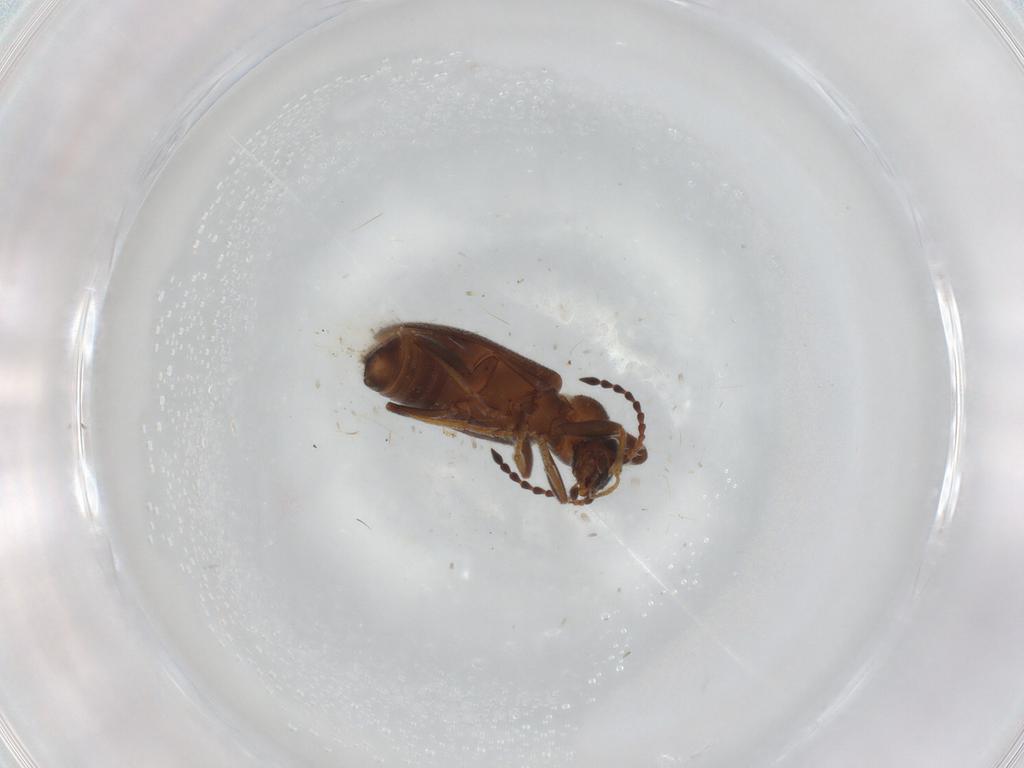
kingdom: Animalia
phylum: Arthropoda
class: Insecta
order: Coleoptera
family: Anthicidae
